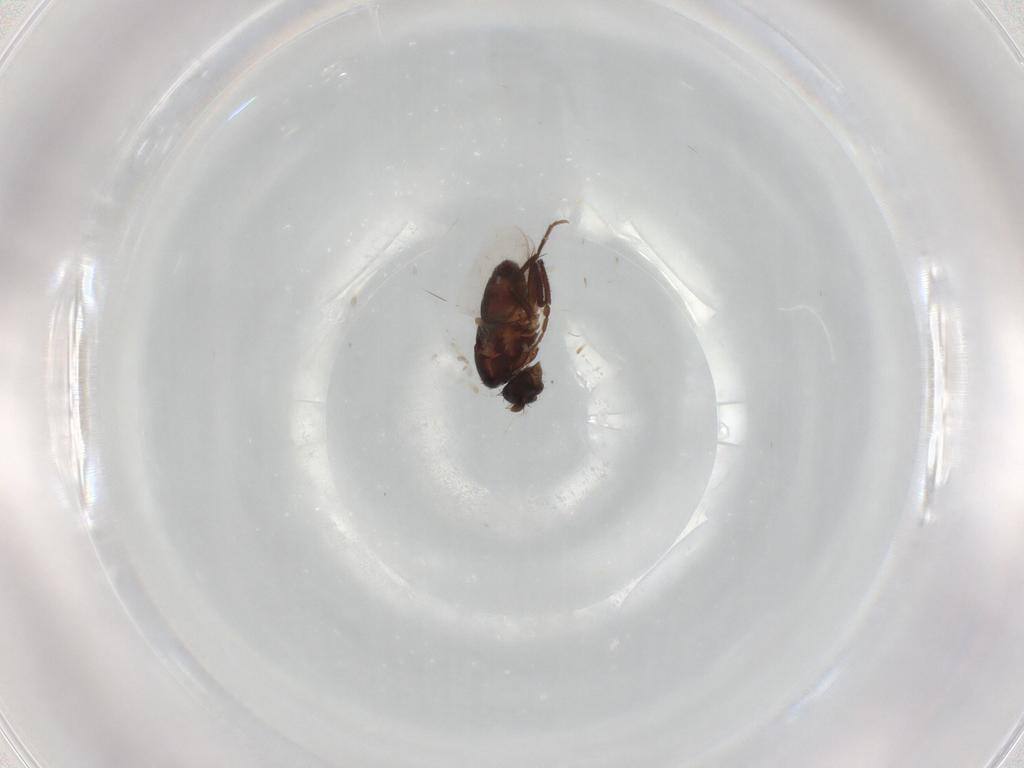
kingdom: Animalia
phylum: Arthropoda
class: Insecta
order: Diptera
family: Sphaeroceridae
